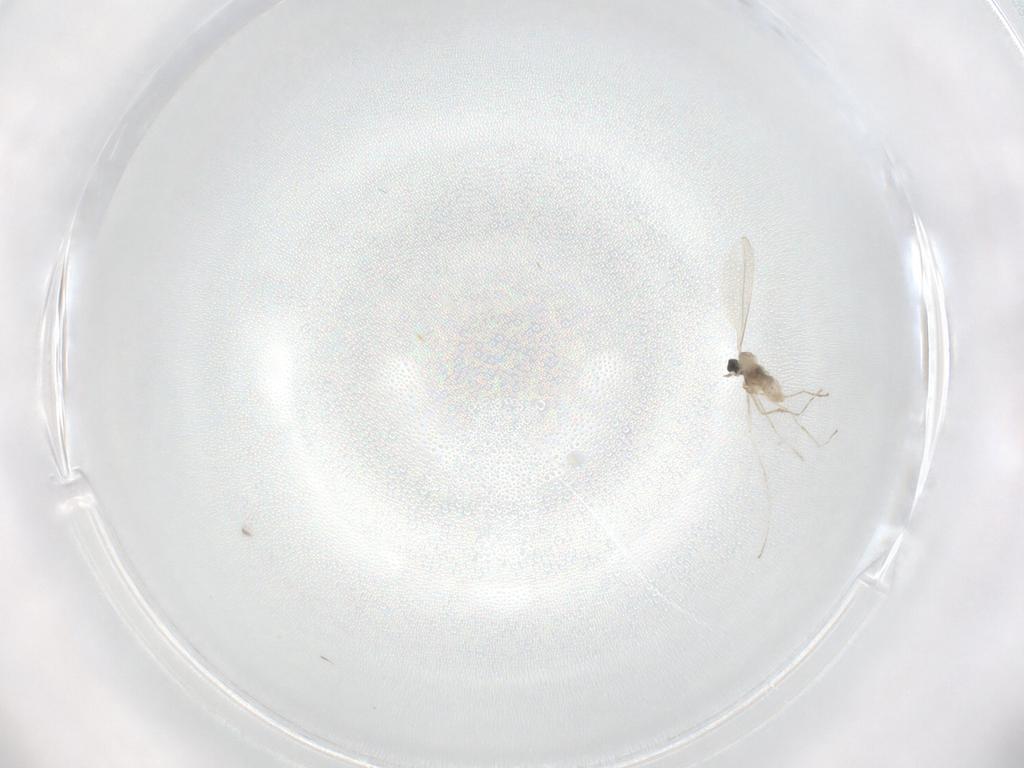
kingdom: Animalia
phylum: Arthropoda
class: Insecta
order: Diptera
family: Cecidomyiidae
